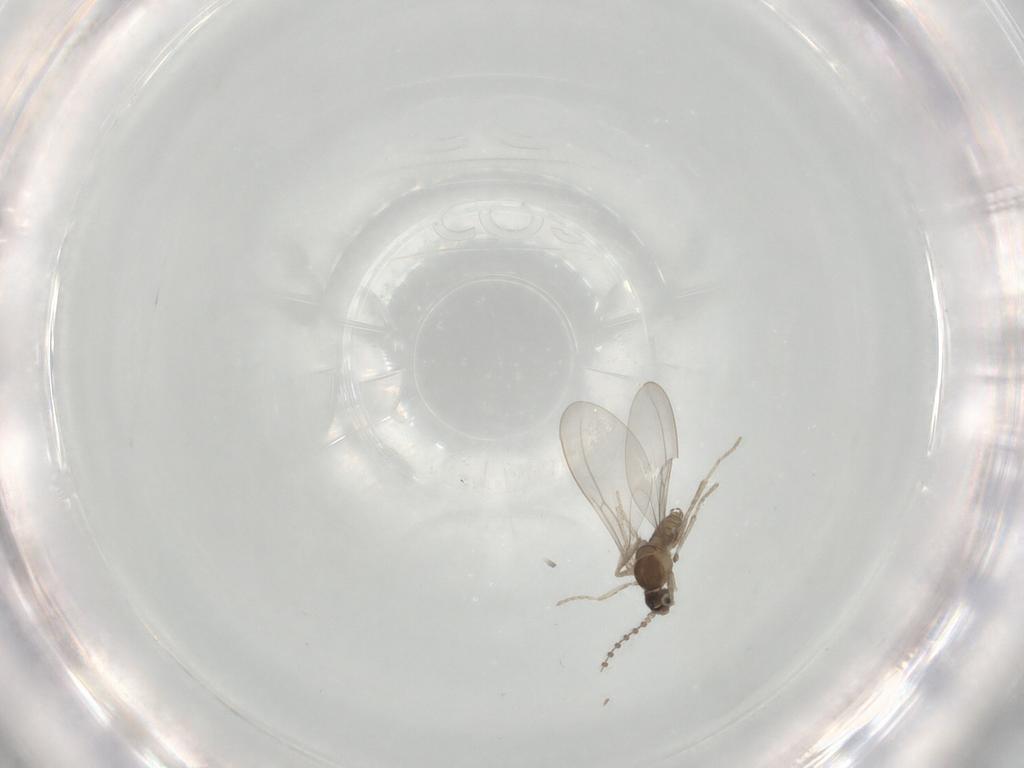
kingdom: Animalia
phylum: Arthropoda
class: Insecta
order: Diptera
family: Cecidomyiidae
